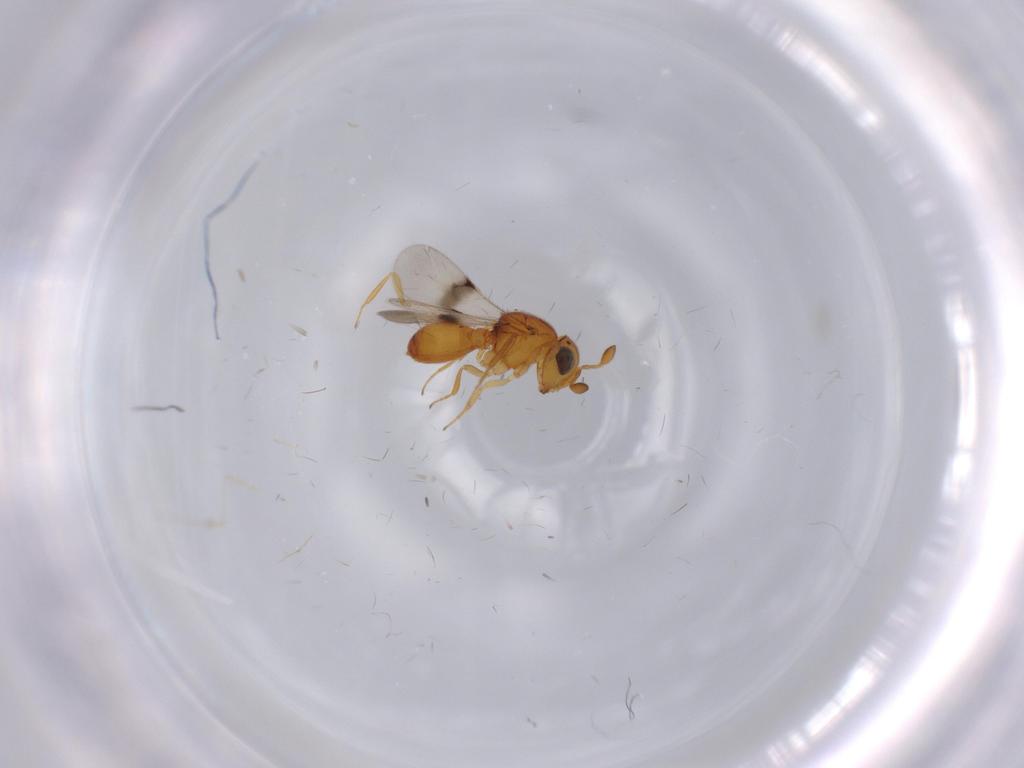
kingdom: Animalia
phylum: Arthropoda
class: Insecta
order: Hymenoptera
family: Scelionidae
